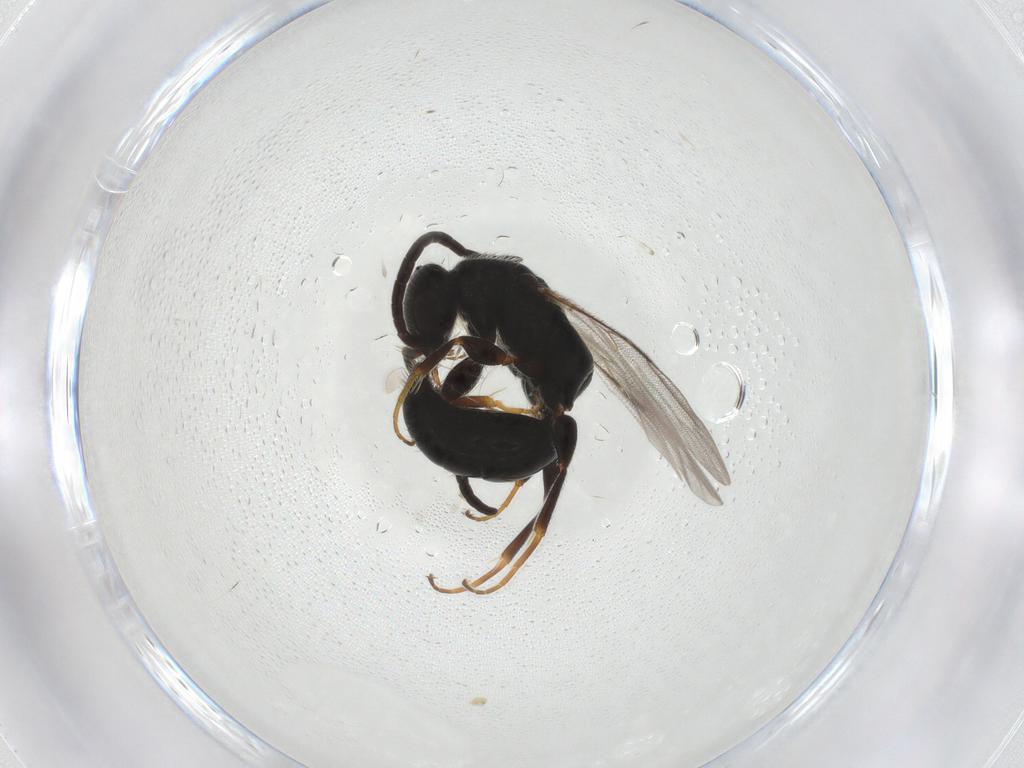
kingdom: Animalia
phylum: Arthropoda
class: Insecta
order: Hymenoptera
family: Bethylidae
